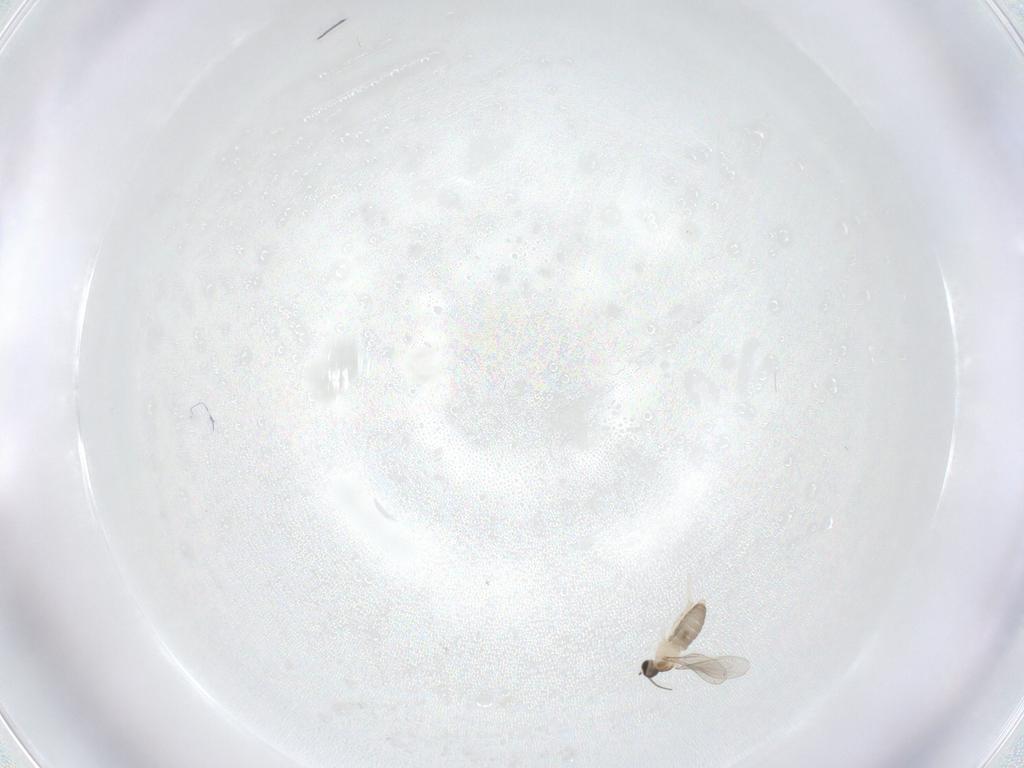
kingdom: Animalia
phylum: Arthropoda
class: Insecta
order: Diptera
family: Cecidomyiidae
